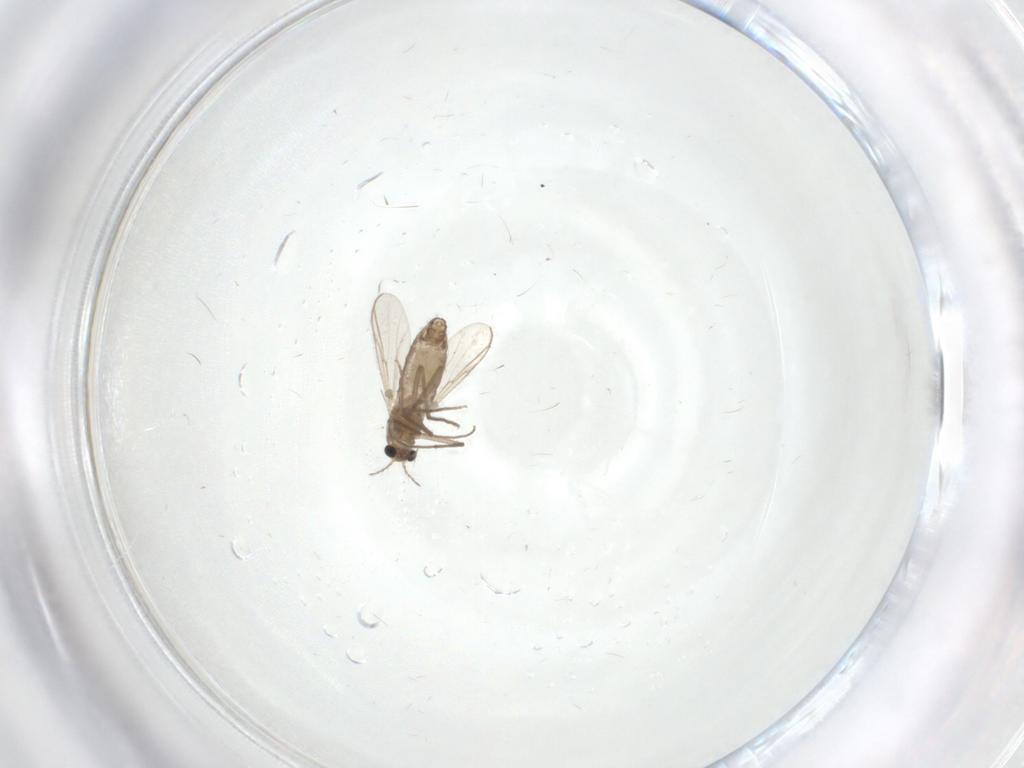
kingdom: Animalia
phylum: Arthropoda
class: Insecta
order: Diptera
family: Chironomidae
